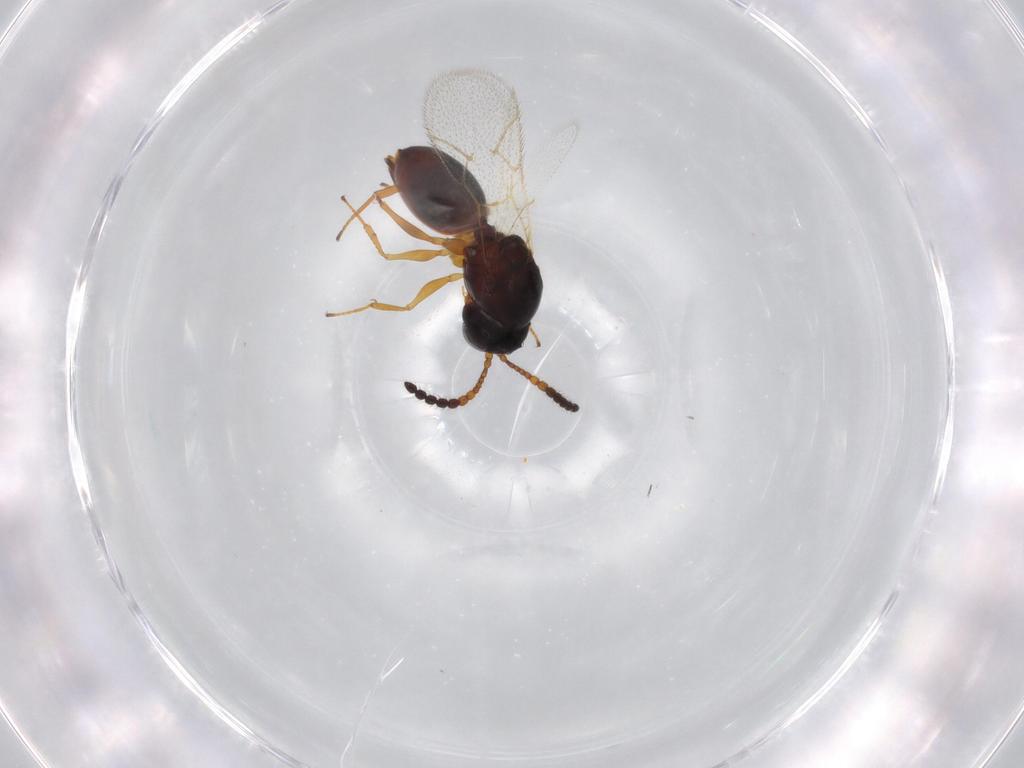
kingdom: Animalia
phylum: Arthropoda
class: Insecta
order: Hymenoptera
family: Figitidae
